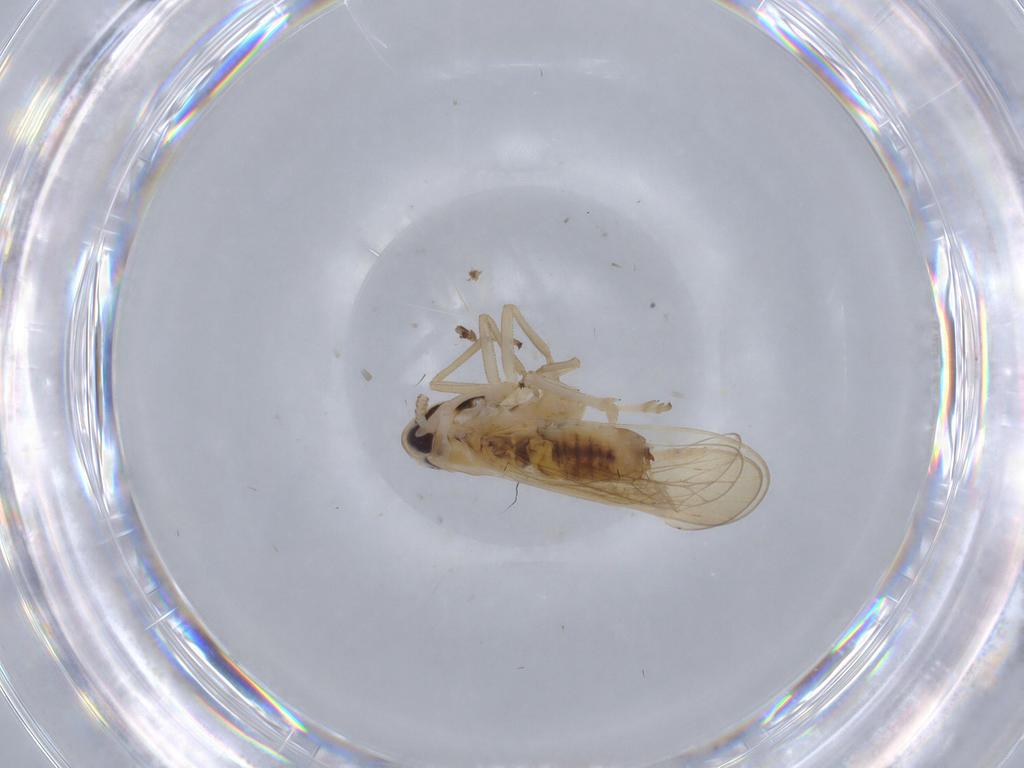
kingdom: Animalia
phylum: Arthropoda
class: Insecta
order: Hemiptera
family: Delphacidae
